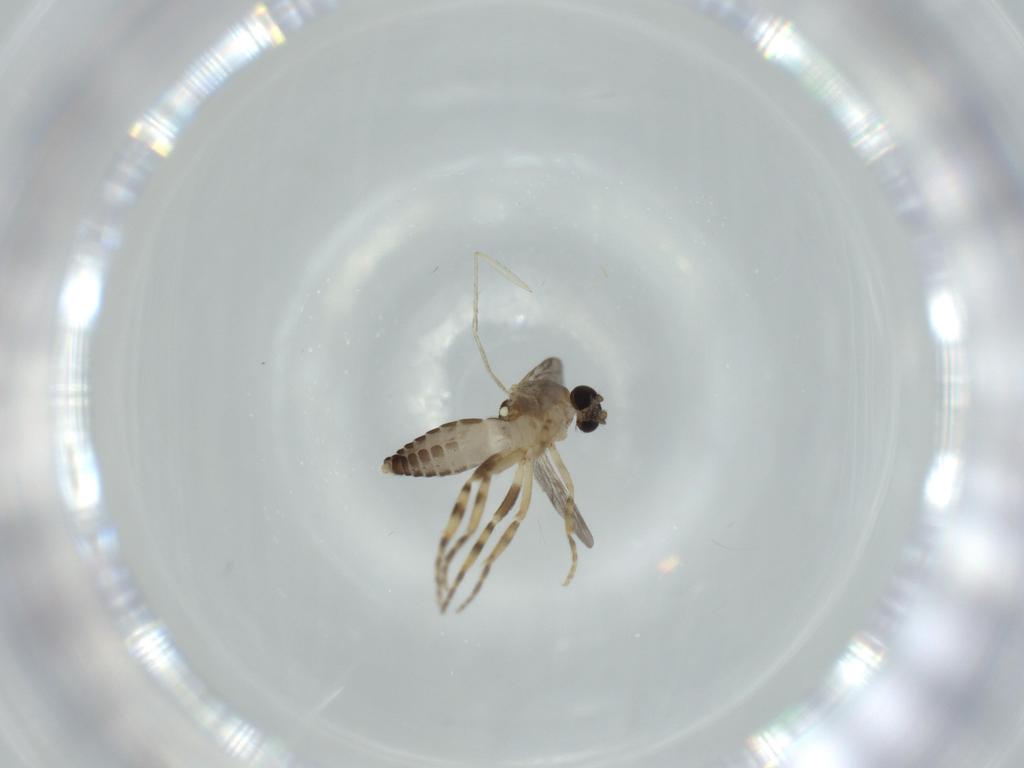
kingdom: Animalia
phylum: Arthropoda
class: Insecta
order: Diptera
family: Ceratopogonidae
